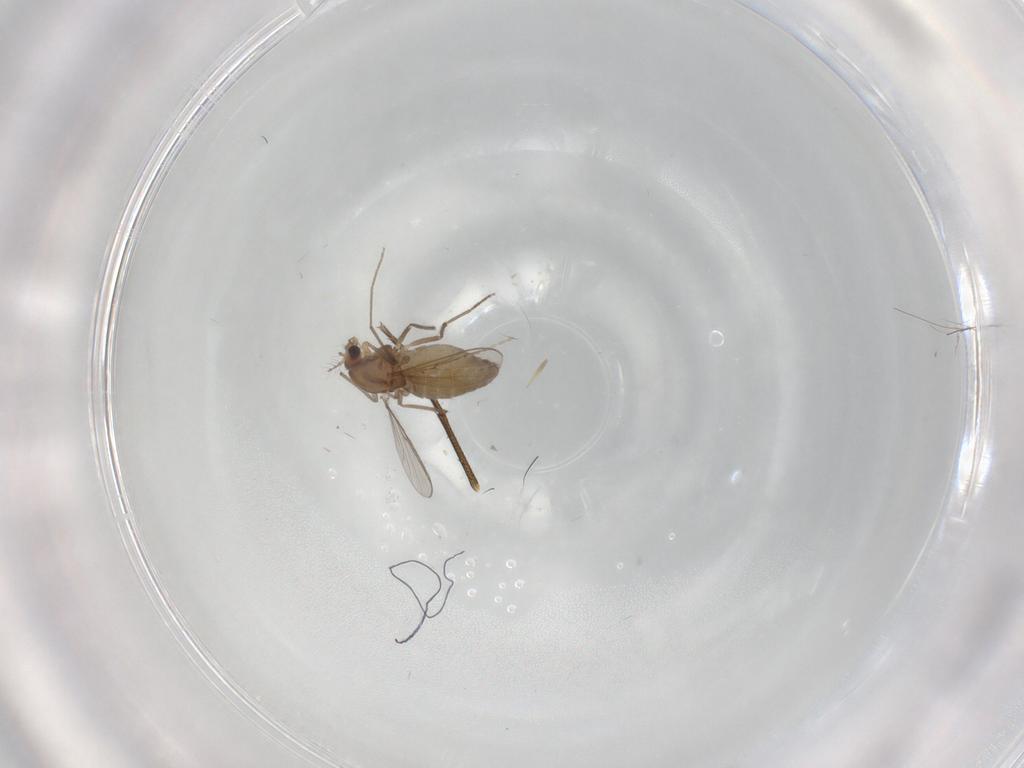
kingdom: Animalia
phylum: Arthropoda
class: Insecta
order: Diptera
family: Chironomidae
